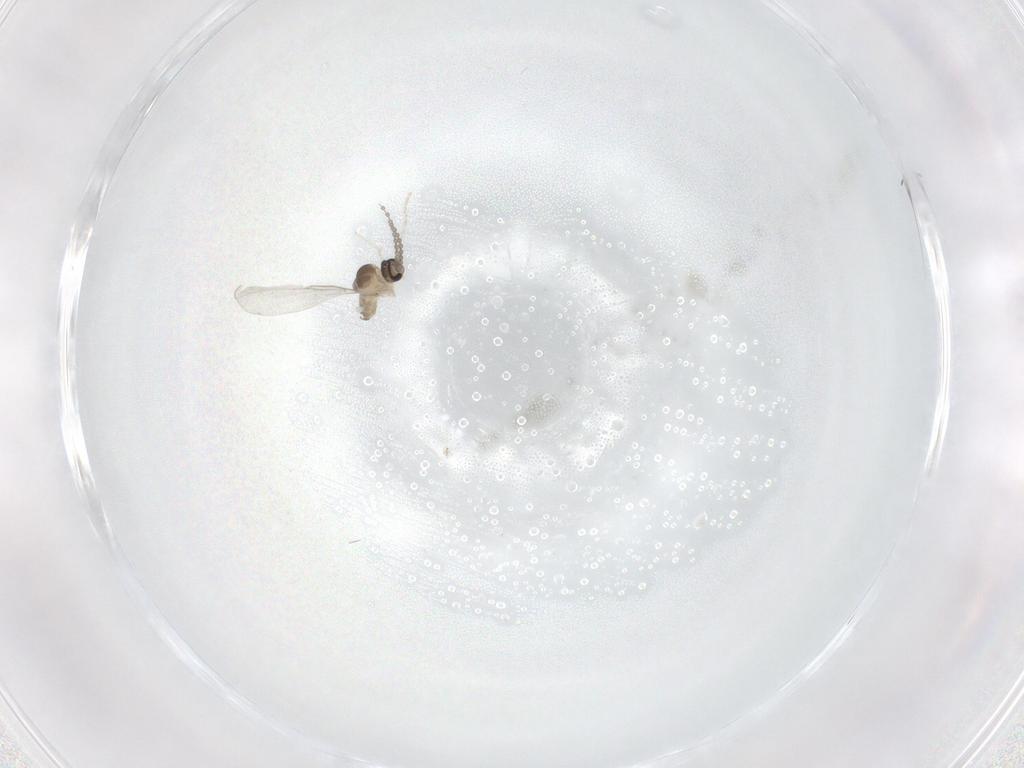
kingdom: Animalia
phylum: Arthropoda
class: Insecta
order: Diptera
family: Cecidomyiidae
